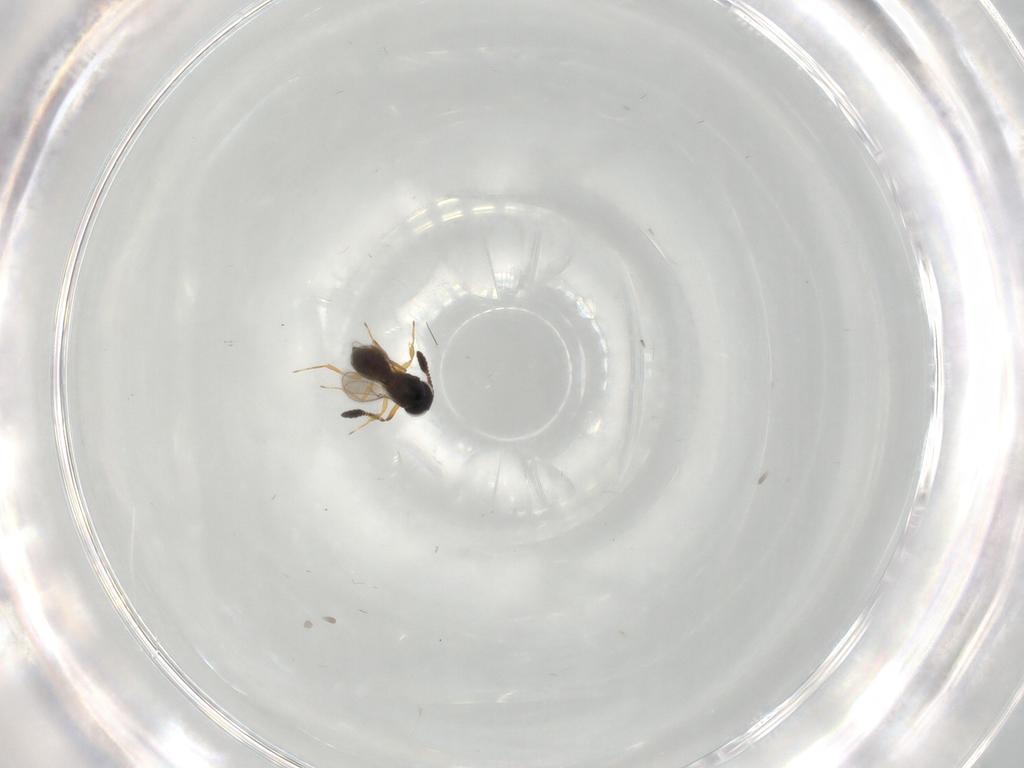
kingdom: Animalia
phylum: Arthropoda
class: Insecta
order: Hymenoptera
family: Scelionidae
